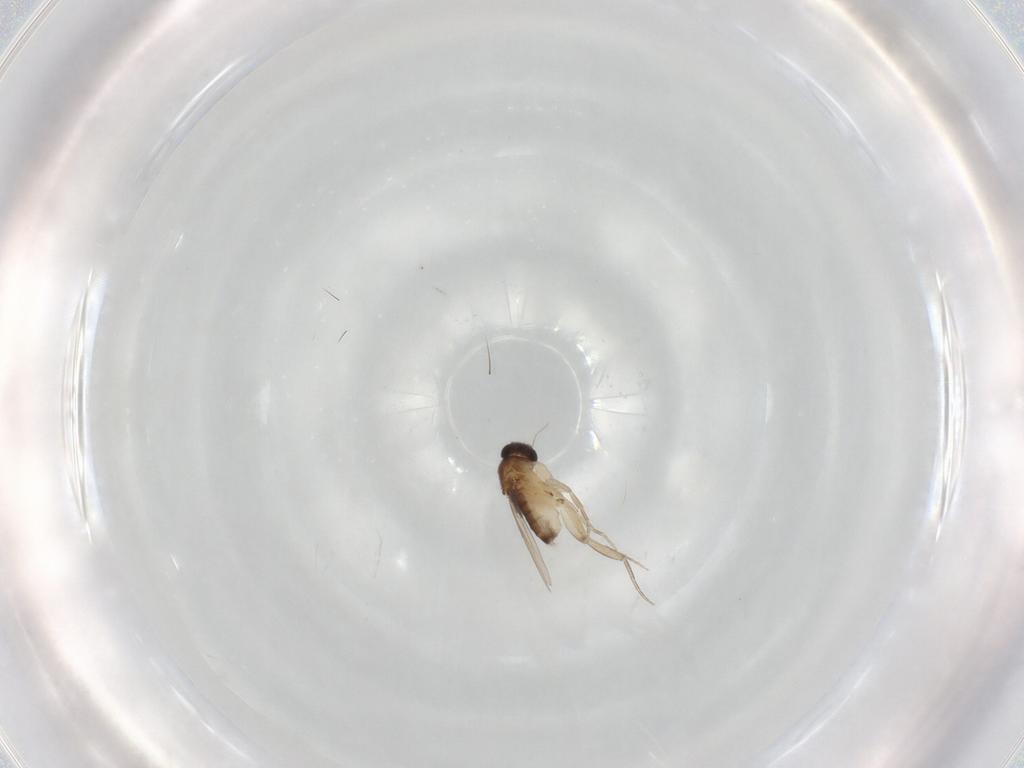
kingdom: Animalia
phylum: Arthropoda
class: Insecta
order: Diptera
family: Phoridae
